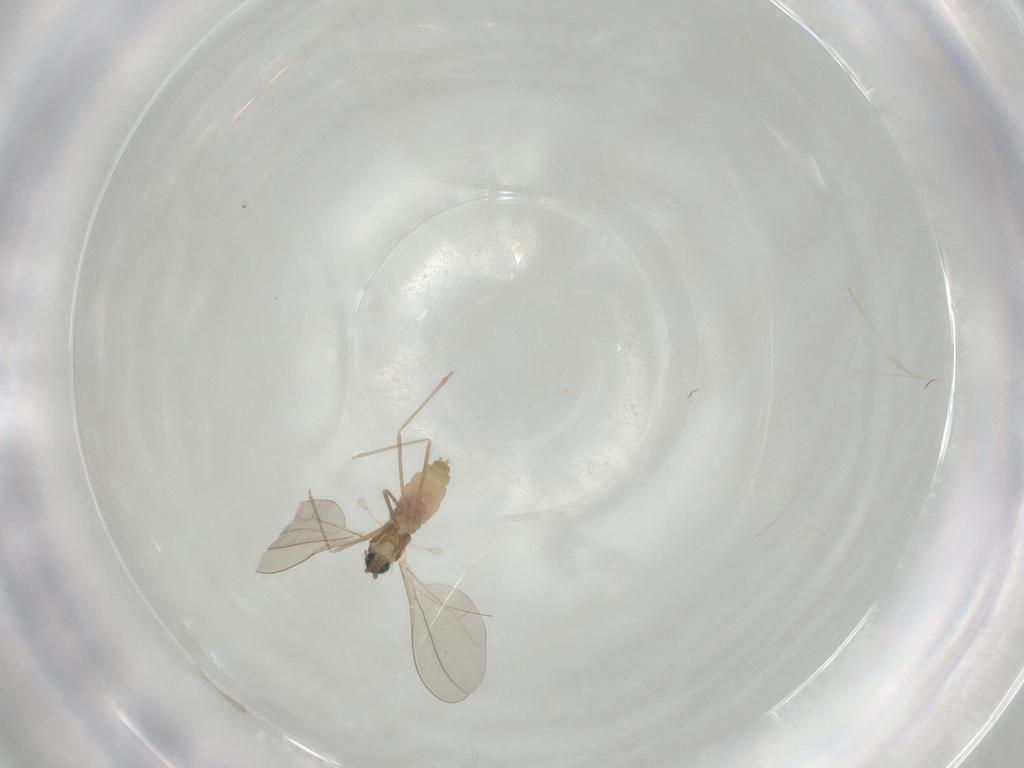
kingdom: Animalia
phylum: Arthropoda
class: Insecta
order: Diptera
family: Cecidomyiidae
